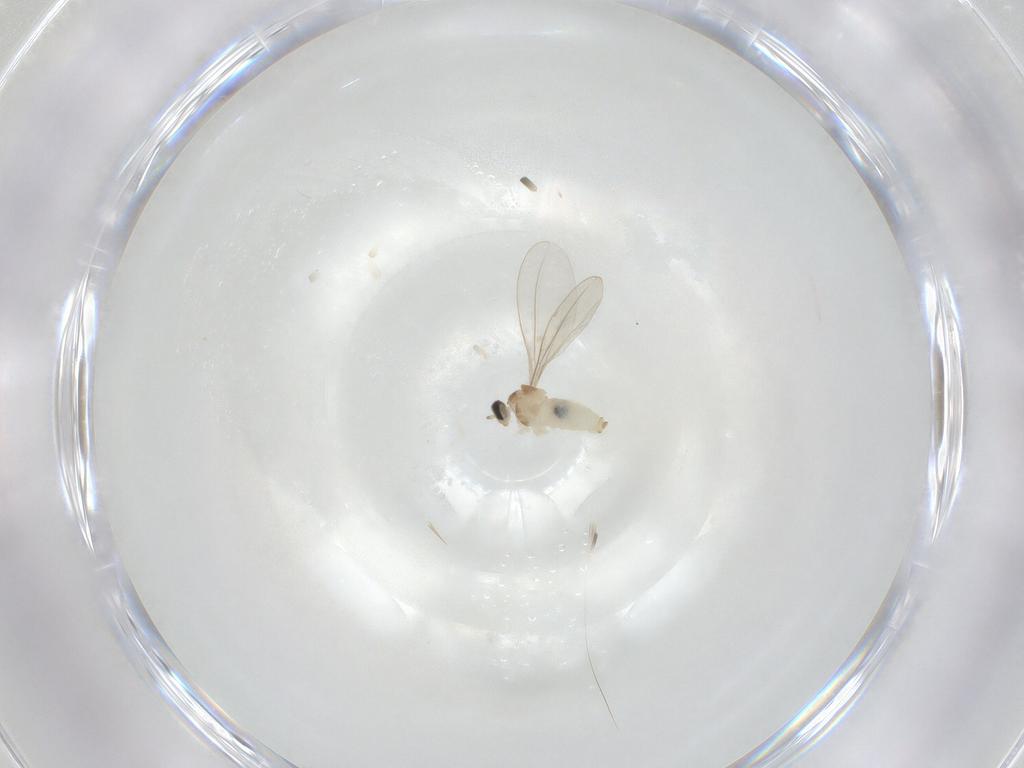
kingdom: Animalia
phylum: Arthropoda
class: Insecta
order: Diptera
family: Cecidomyiidae
